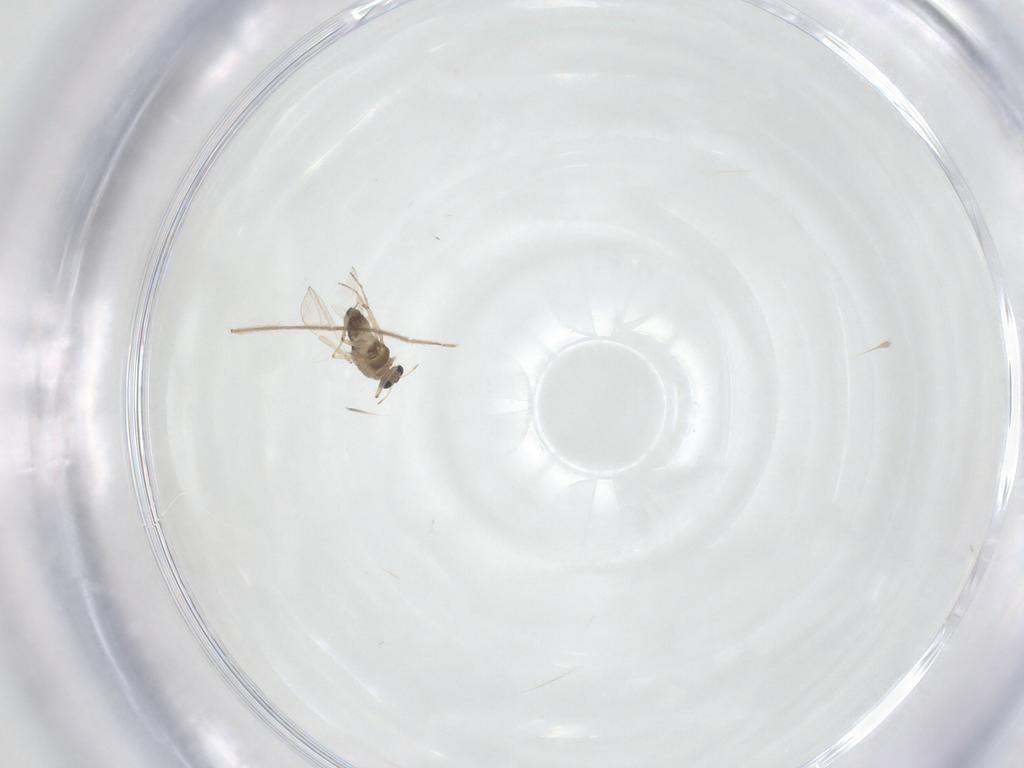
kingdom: Animalia
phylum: Arthropoda
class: Insecta
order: Diptera
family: Chironomidae
